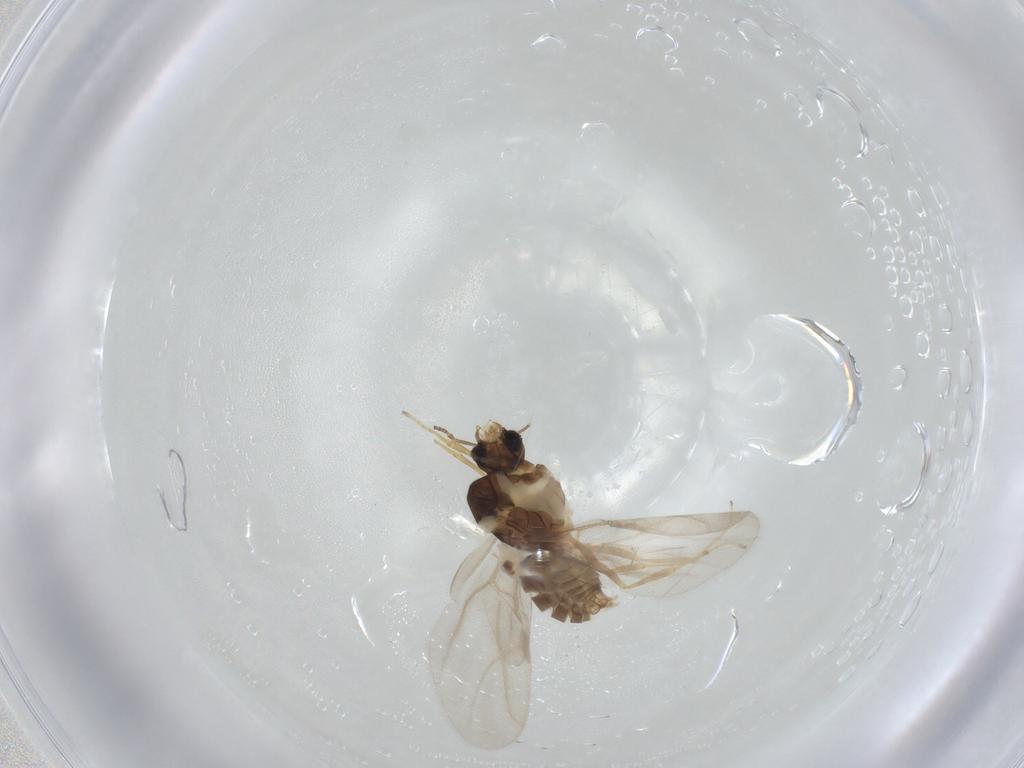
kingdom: Animalia
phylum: Arthropoda
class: Insecta
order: Hymenoptera
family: Formicidae
